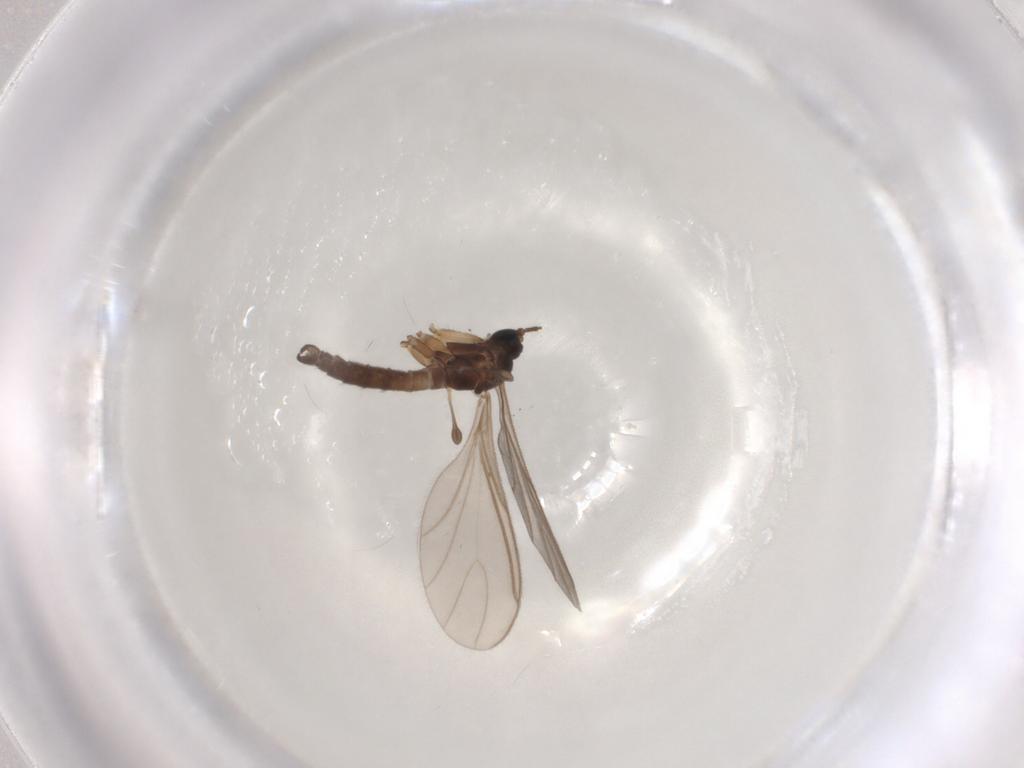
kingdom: Animalia
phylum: Arthropoda
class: Insecta
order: Diptera
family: Sciaridae
